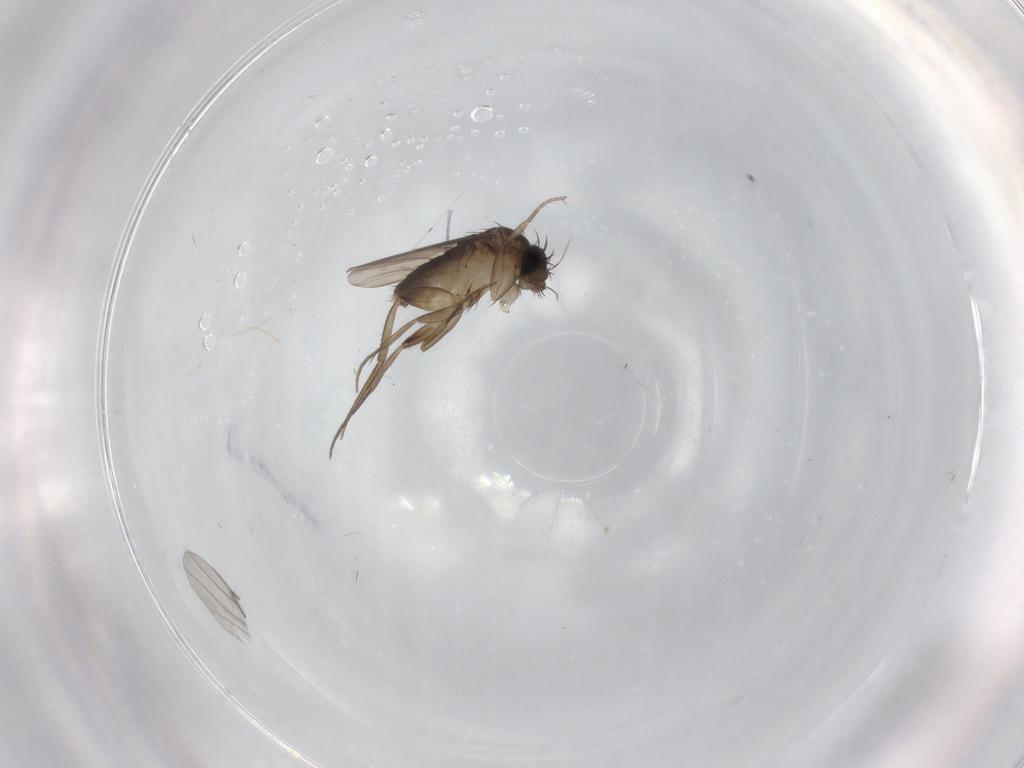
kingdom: Animalia
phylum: Arthropoda
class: Insecta
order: Diptera
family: Phoridae
